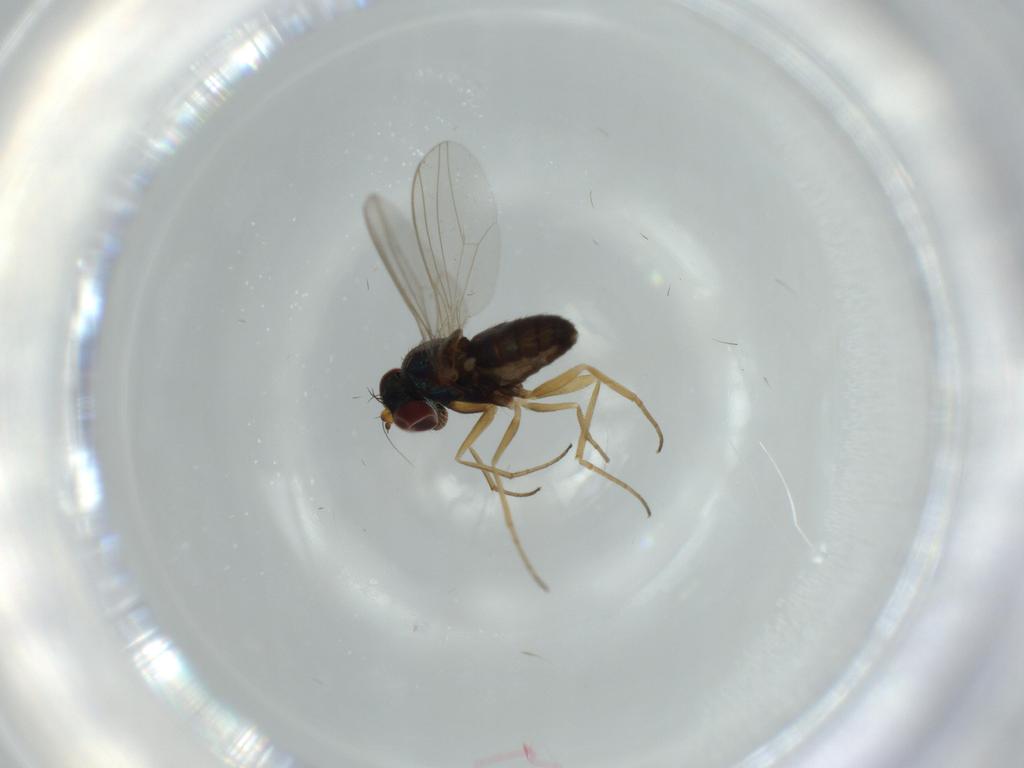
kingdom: Animalia
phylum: Arthropoda
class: Insecta
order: Diptera
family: Dolichopodidae
